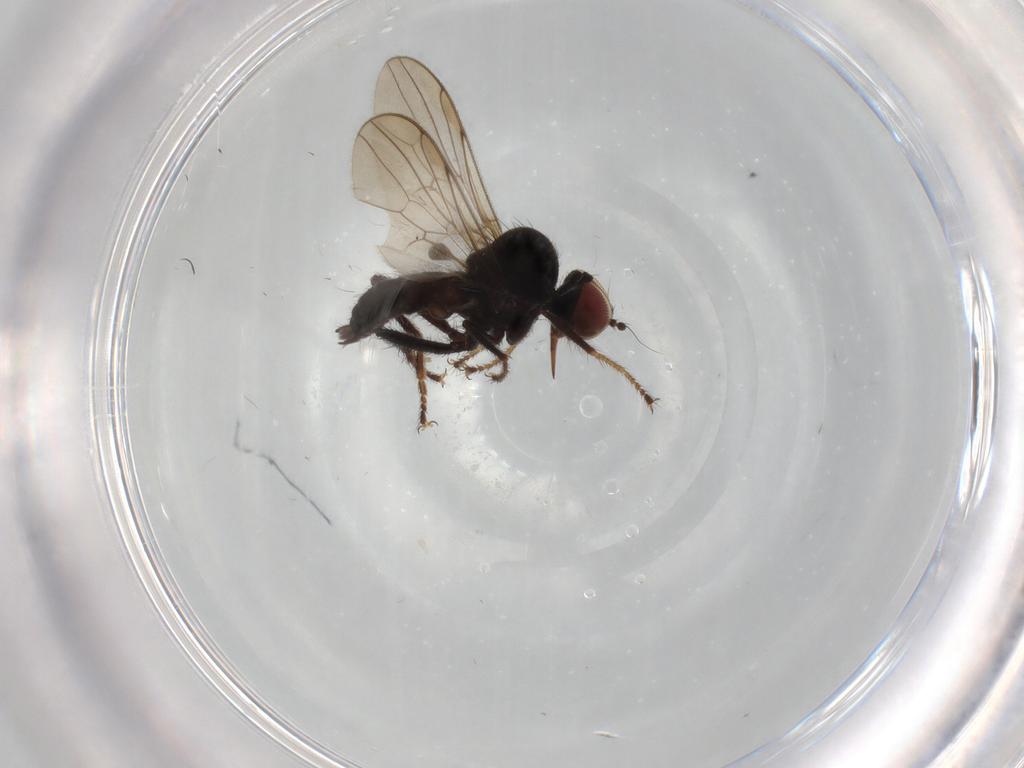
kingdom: Animalia
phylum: Arthropoda
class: Insecta
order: Diptera
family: Hybotidae
